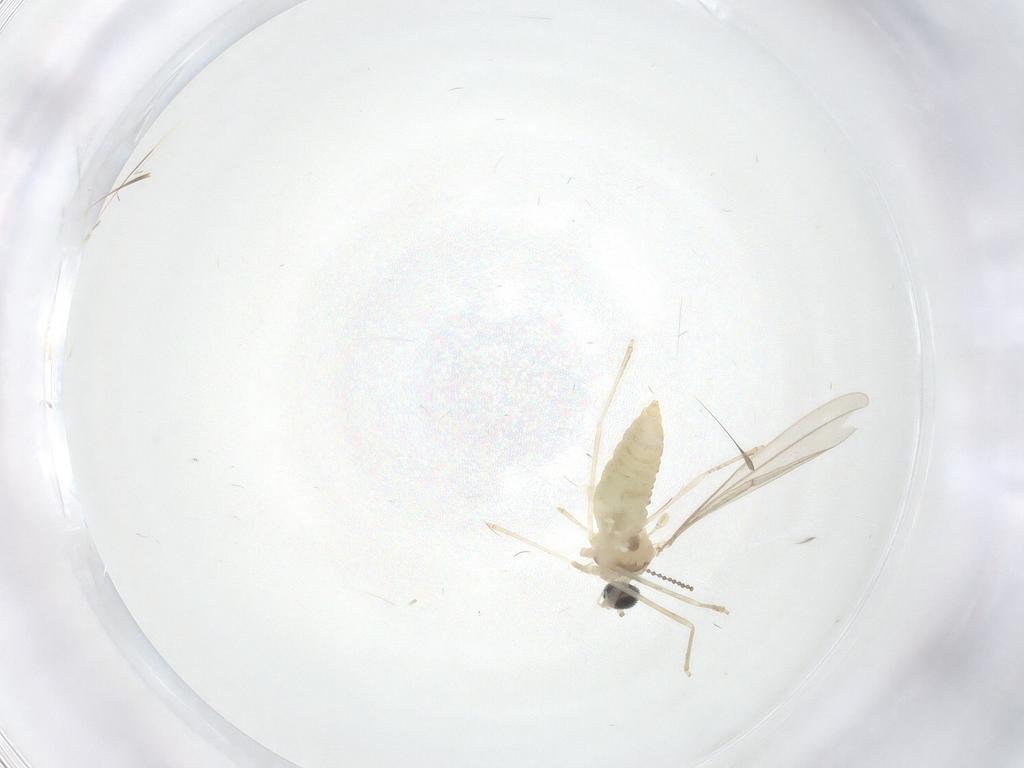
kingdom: Animalia
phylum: Arthropoda
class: Insecta
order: Diptera
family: Cecidomyiidae
